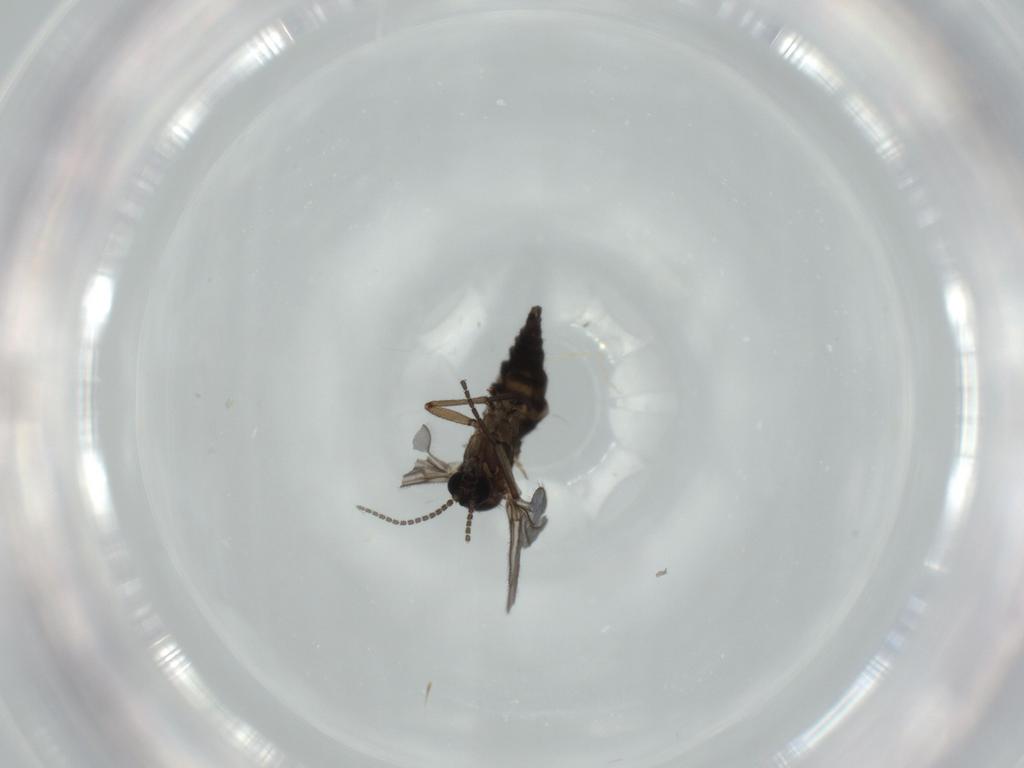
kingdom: Animalia
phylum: Arthropoda
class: Insecta
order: Diptera
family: Sciaridae
